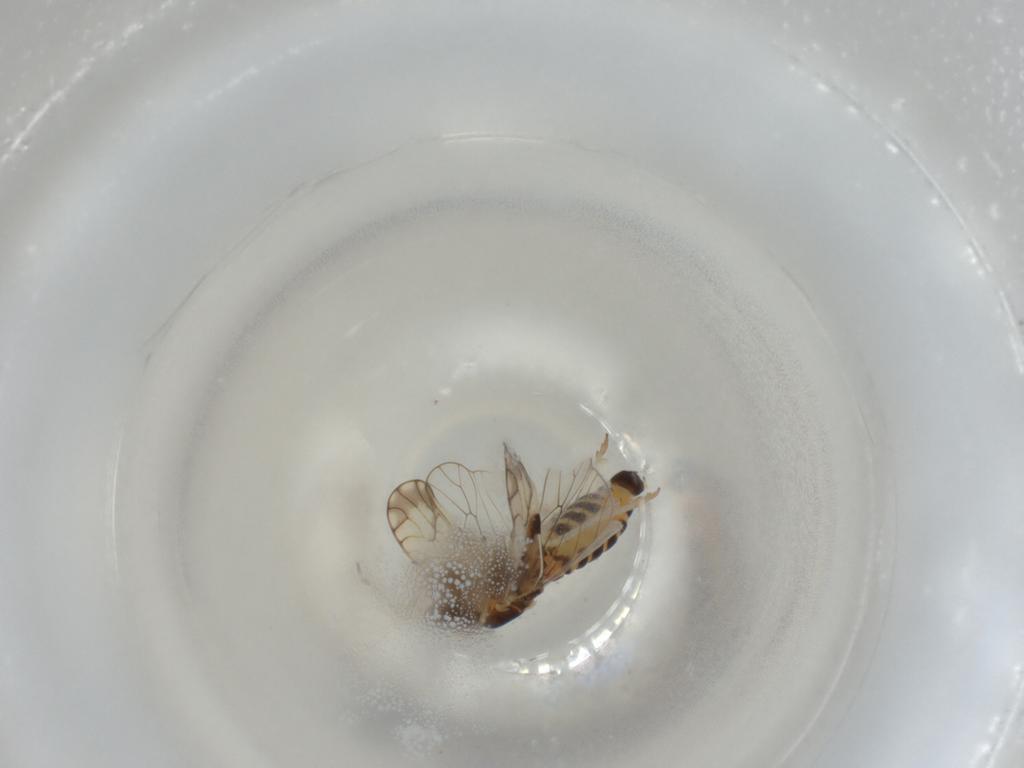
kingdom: Animalia
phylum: Arthropoda
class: Insecta
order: Hemiptera
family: Delphacidae
